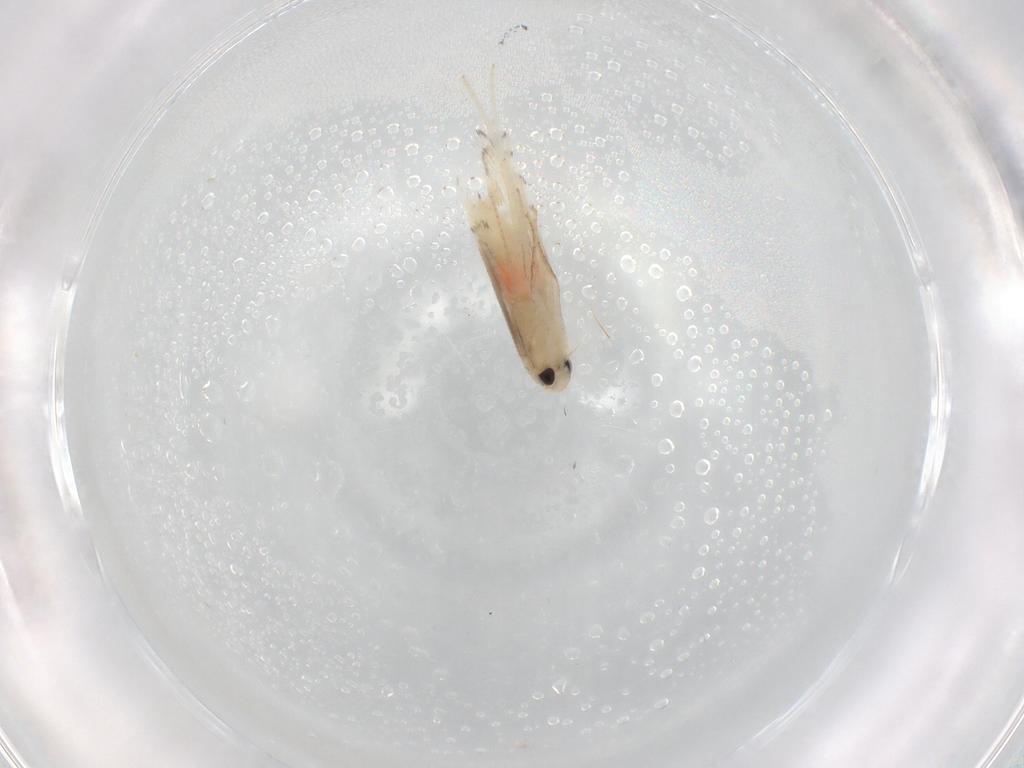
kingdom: Animalia
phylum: Arthropoda
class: Insecta
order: Lepidoptera
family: Gracillariidae
